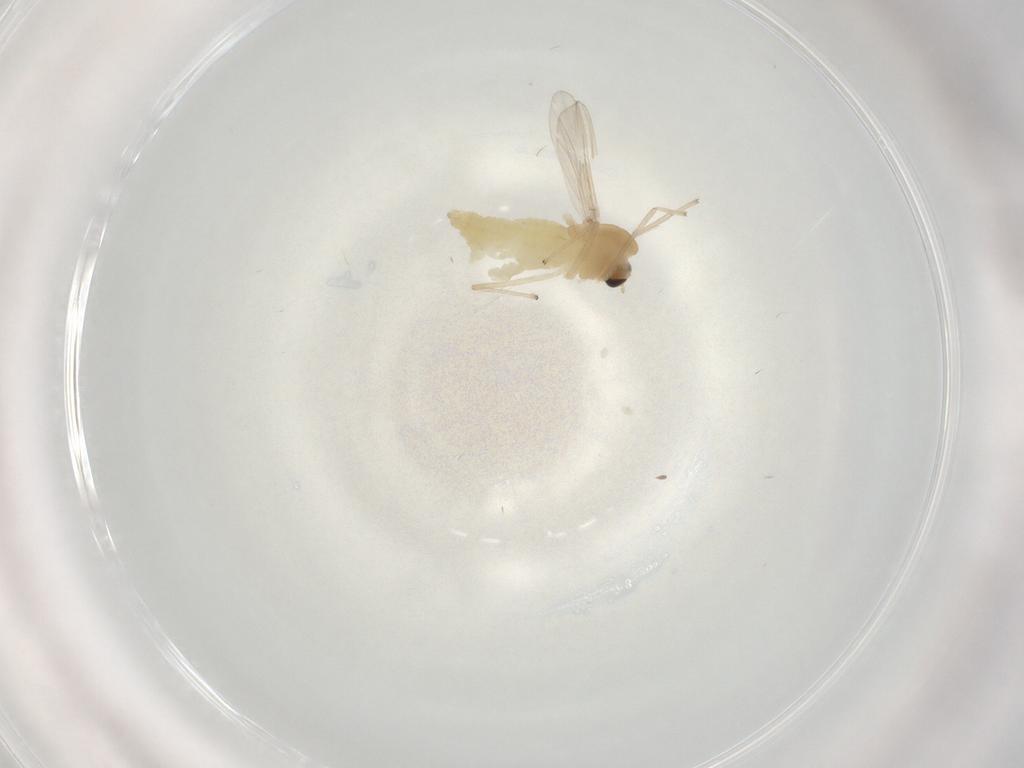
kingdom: Animalia
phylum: Arthropoda
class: Insecta
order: Diptera
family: Chironomidae
